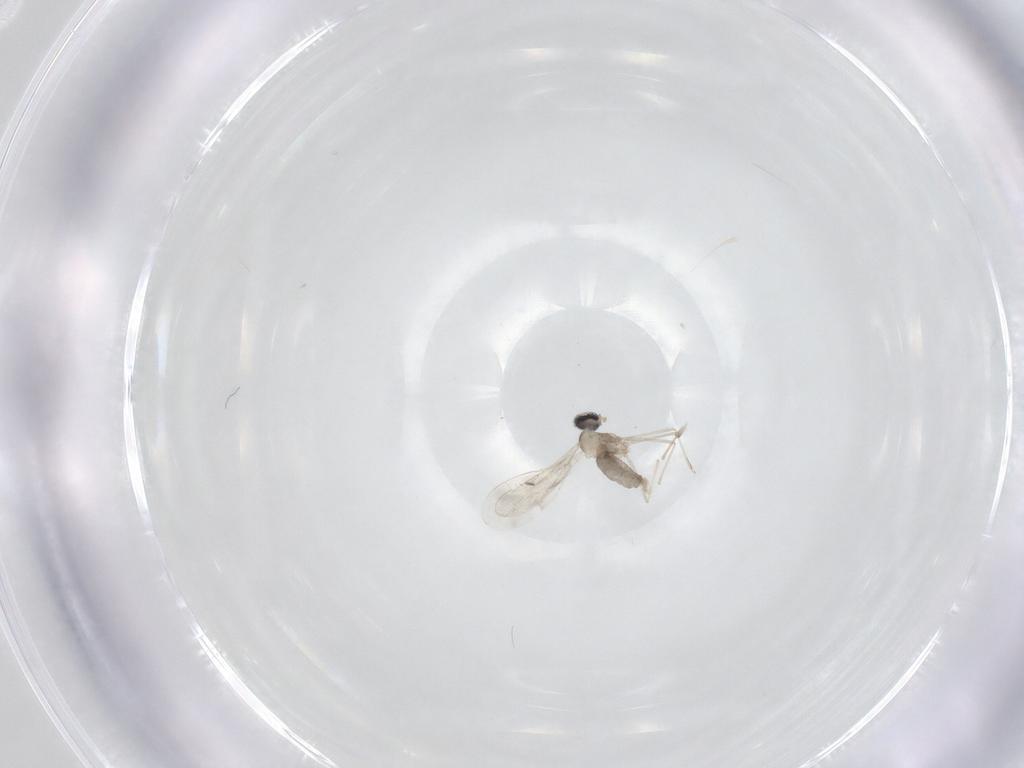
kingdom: Animalia
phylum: Arthropoda
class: Insecta
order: Diptera
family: Cecidomyiidae
